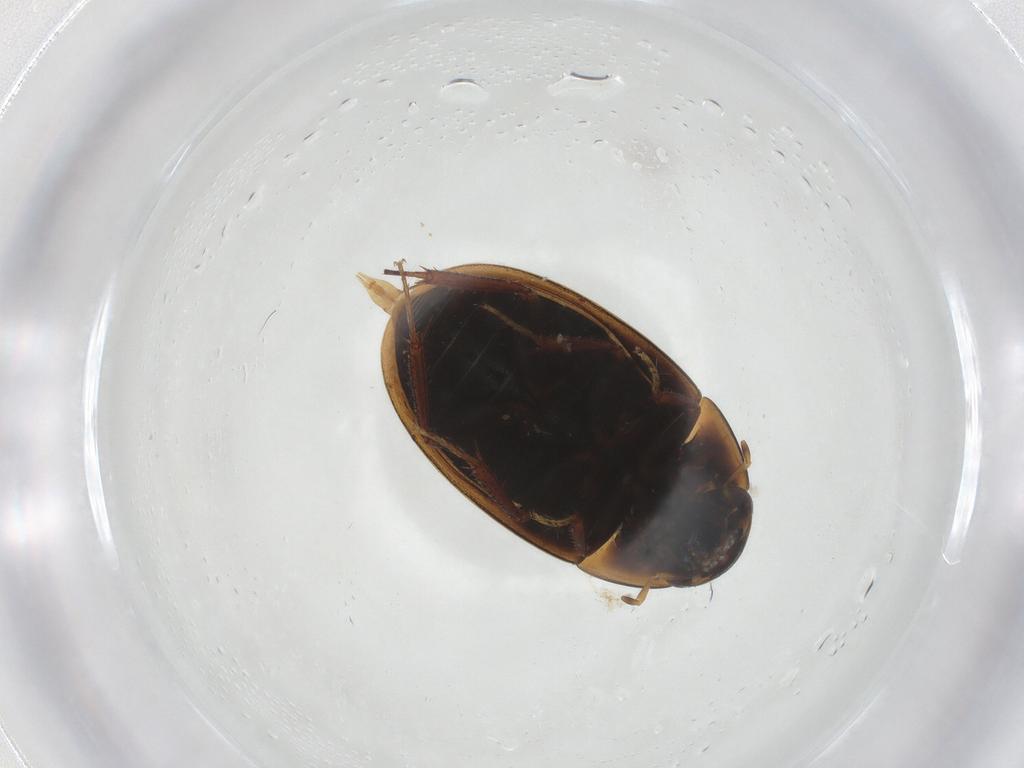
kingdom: Animalia
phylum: Arthropoda
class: Insecta
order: Coleoptera
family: Hydrophilidae
